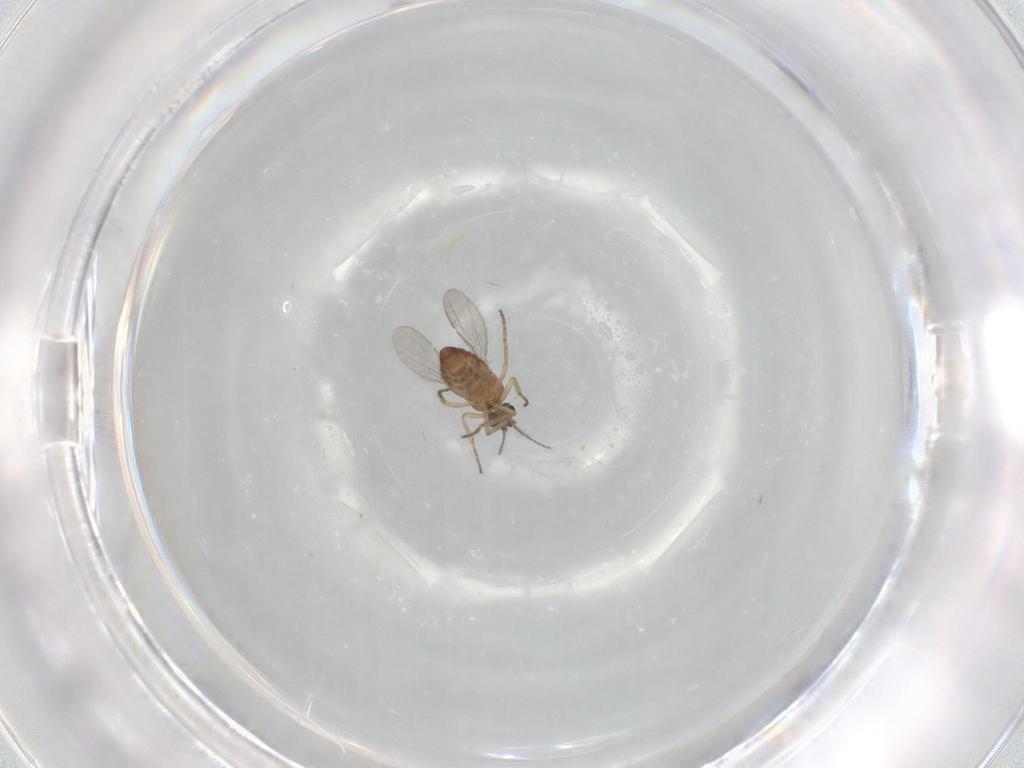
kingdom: Animalia
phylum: Arthropoda
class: Insecta
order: Diptera
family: Ceratopogonidae
